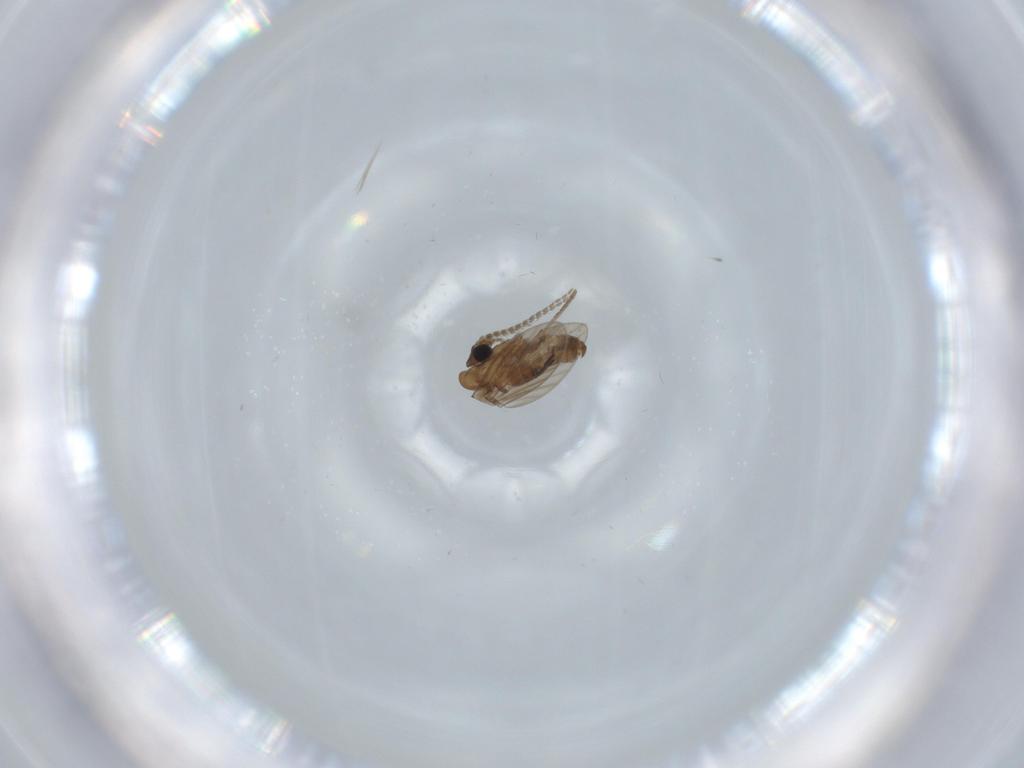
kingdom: Animalia
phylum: Arthropoda
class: Insecta
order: Diptera
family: Psychodidae
